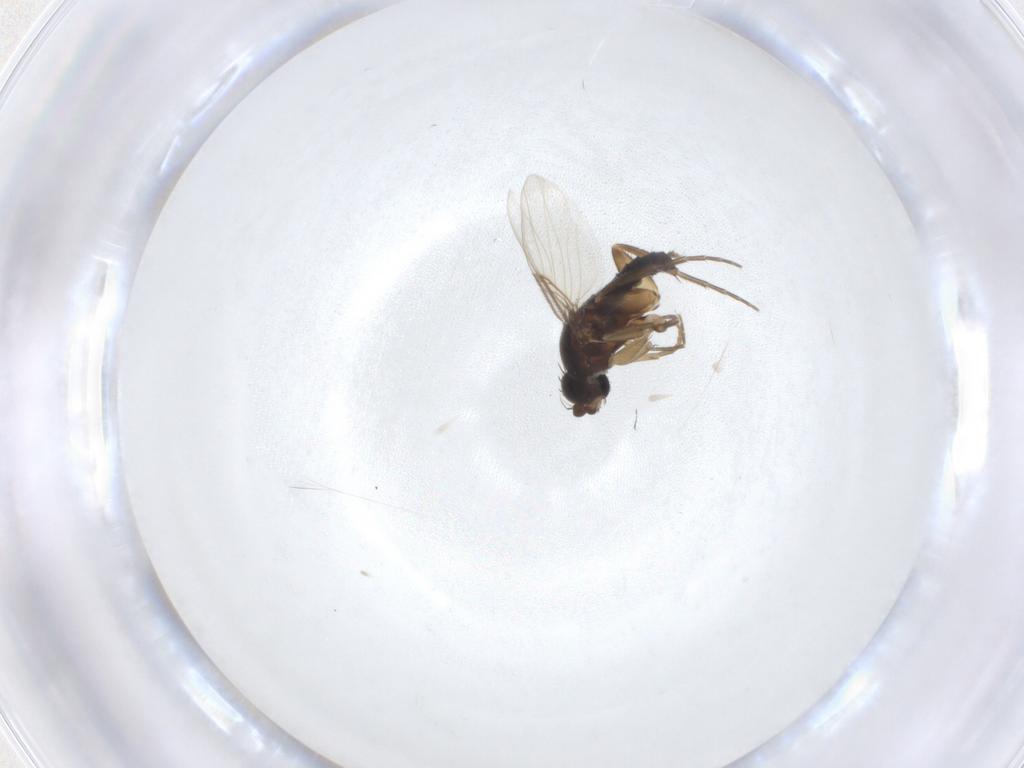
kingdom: Animalia
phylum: Arthropoda
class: Insecta
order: Diptera
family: Phoridae
